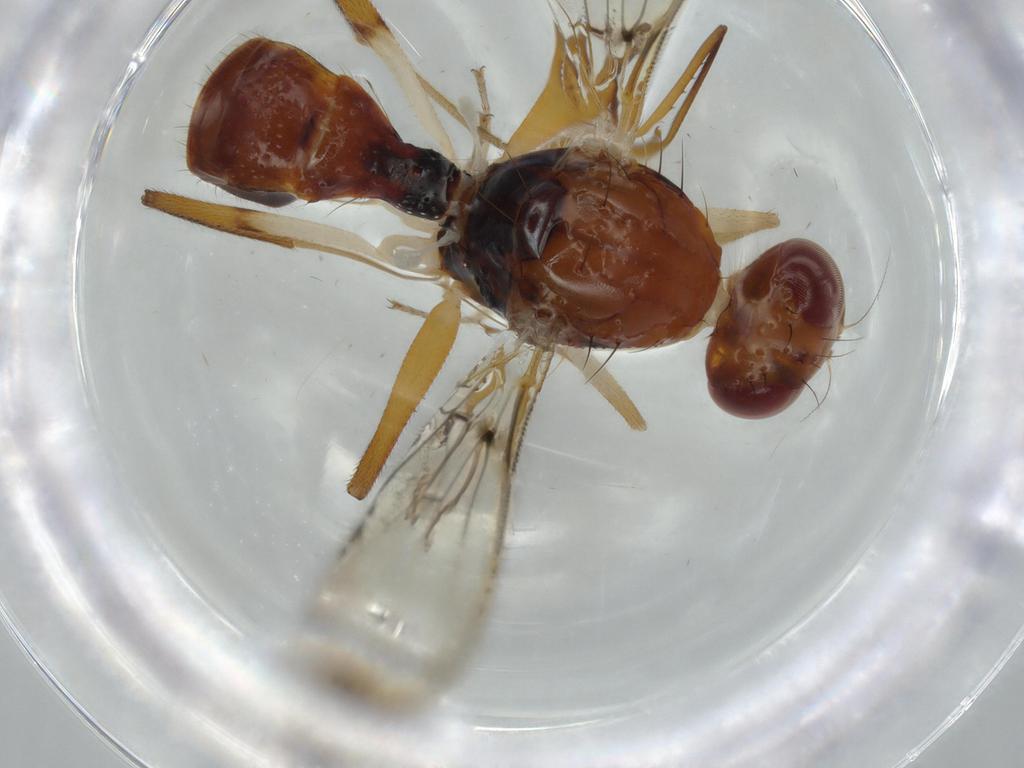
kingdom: Animalia
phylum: Arthropoda
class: Insecta
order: Diptera
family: Richardiidae
